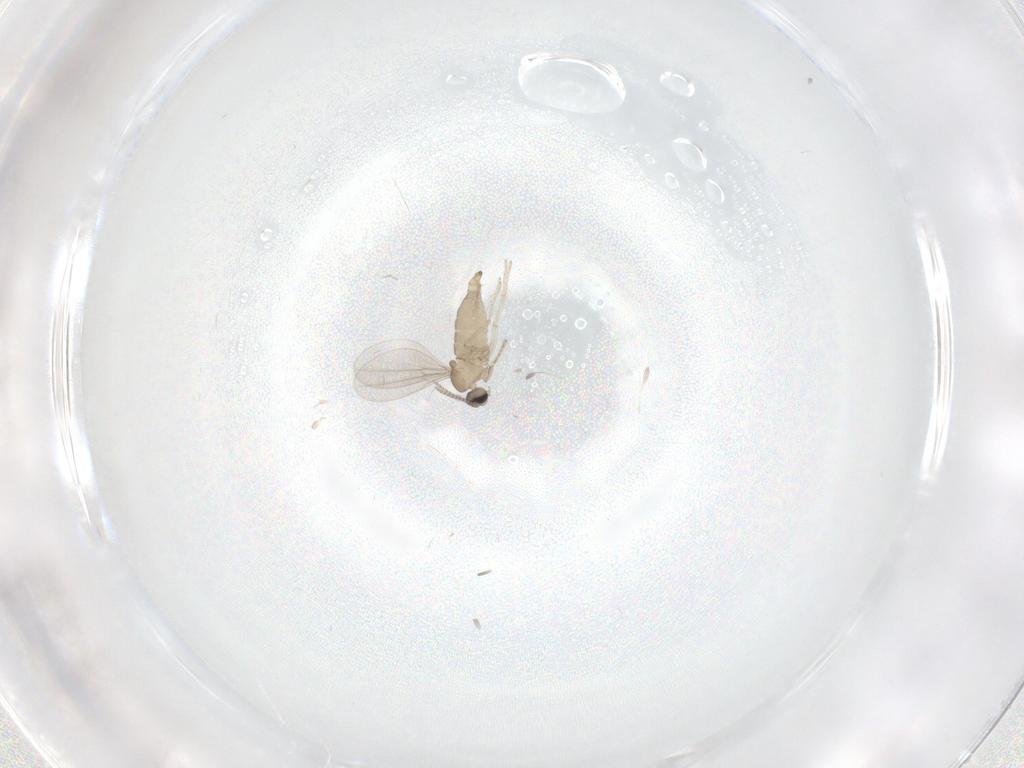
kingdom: Animalia
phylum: Arthropoda
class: Insecta
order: Diptera
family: Cecidomyiidae
